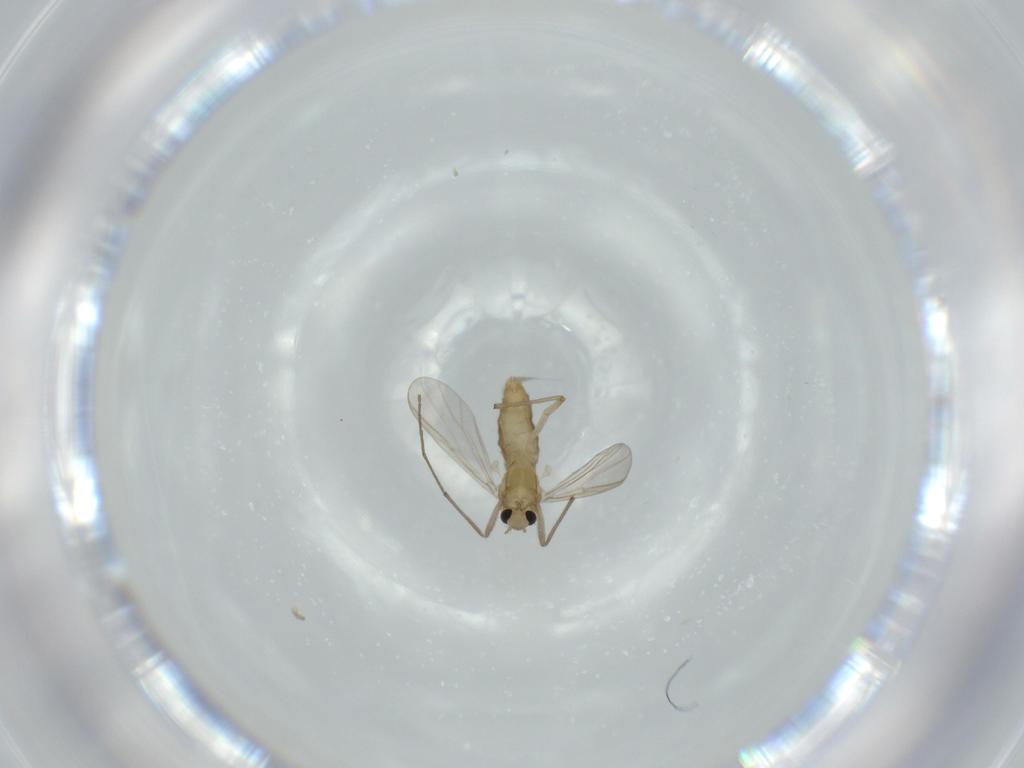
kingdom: Animalia
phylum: Arthropoda
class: Insecta
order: Diptera
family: Chironomidae
